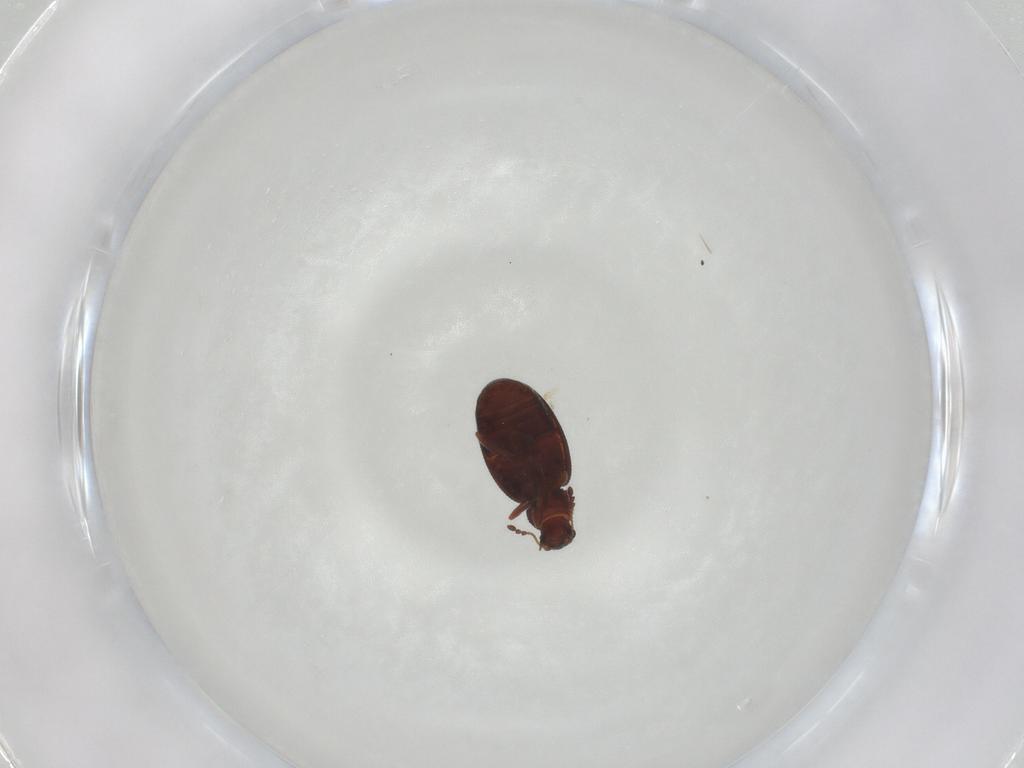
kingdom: Animalia
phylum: Arthropoda
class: Insecta
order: Coleoptera
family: Latridiidae
